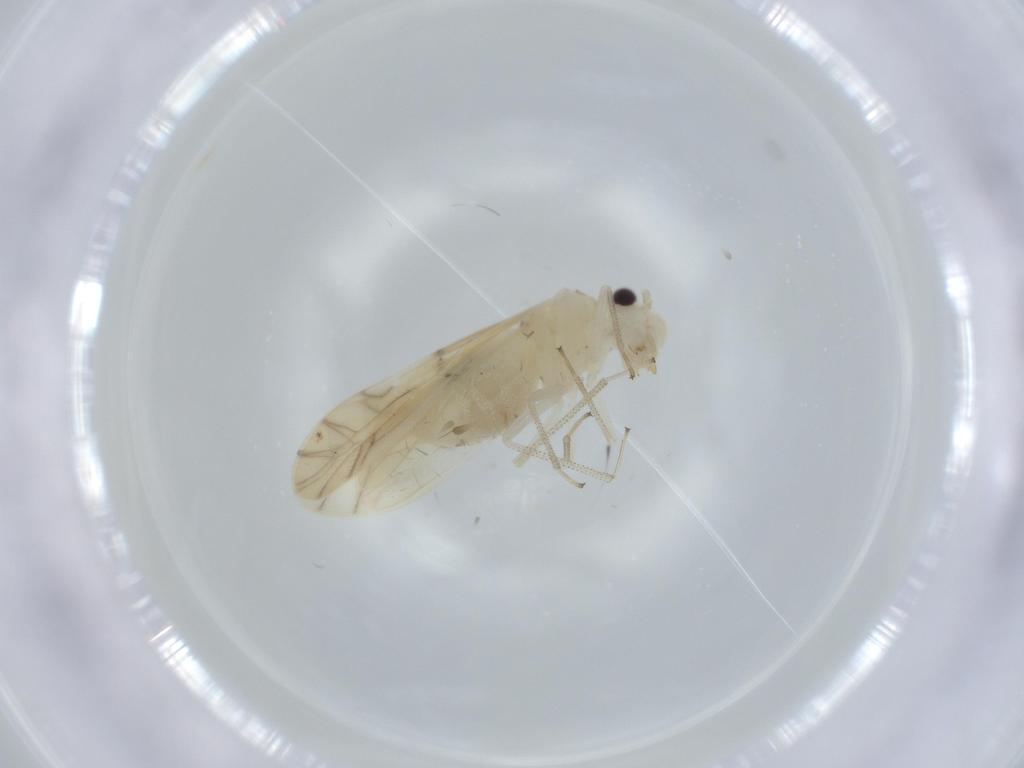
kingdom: Animalia
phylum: Arthropoda
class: Insecta
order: Psocodea
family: Caeciliusidae
